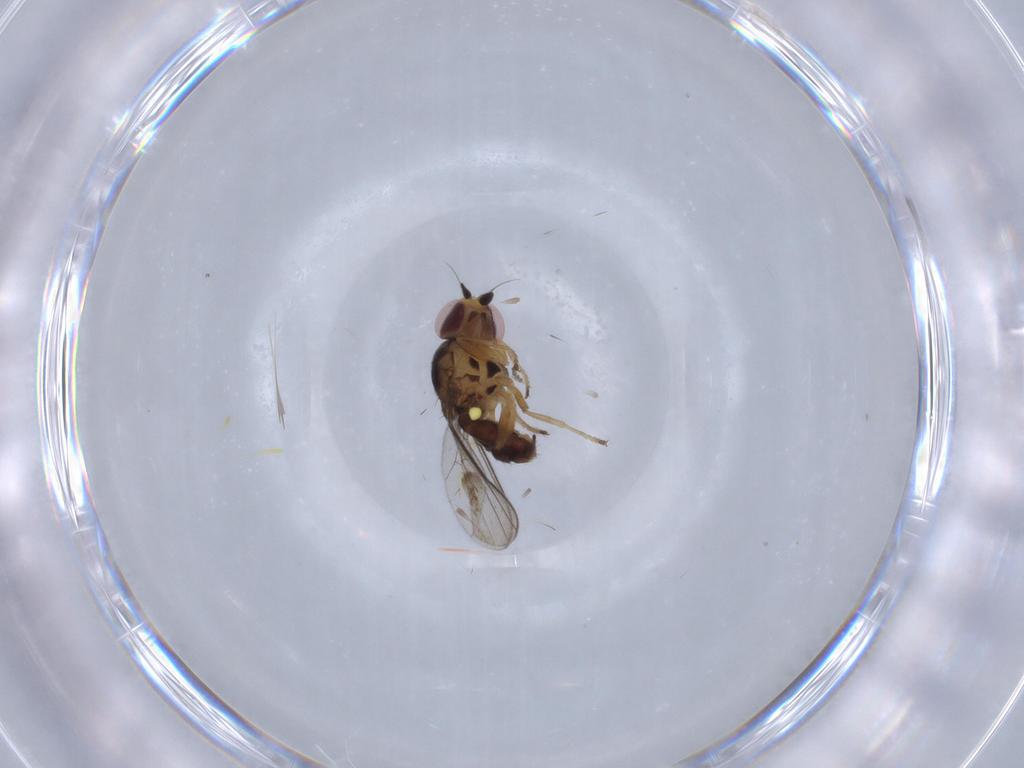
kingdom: Animalia
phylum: Arthropoda
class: Insecta
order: Diptera
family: Chloropidae
